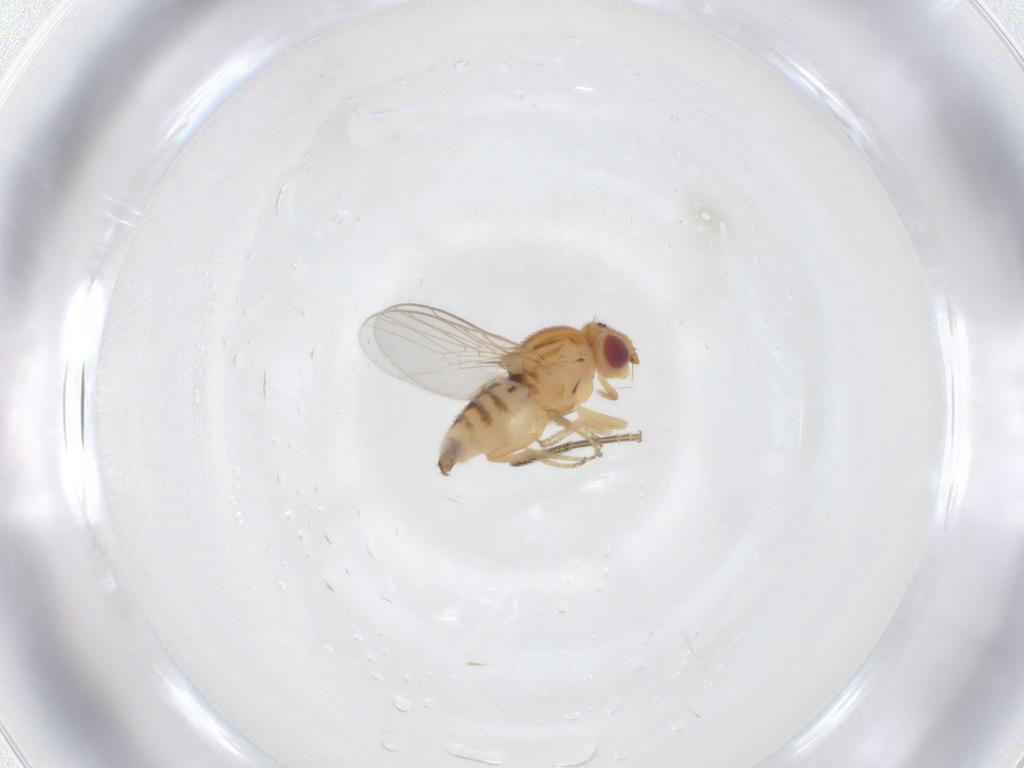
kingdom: Animalia
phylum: Arthropoda
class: Insecta
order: Diptera
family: Chloropidae
